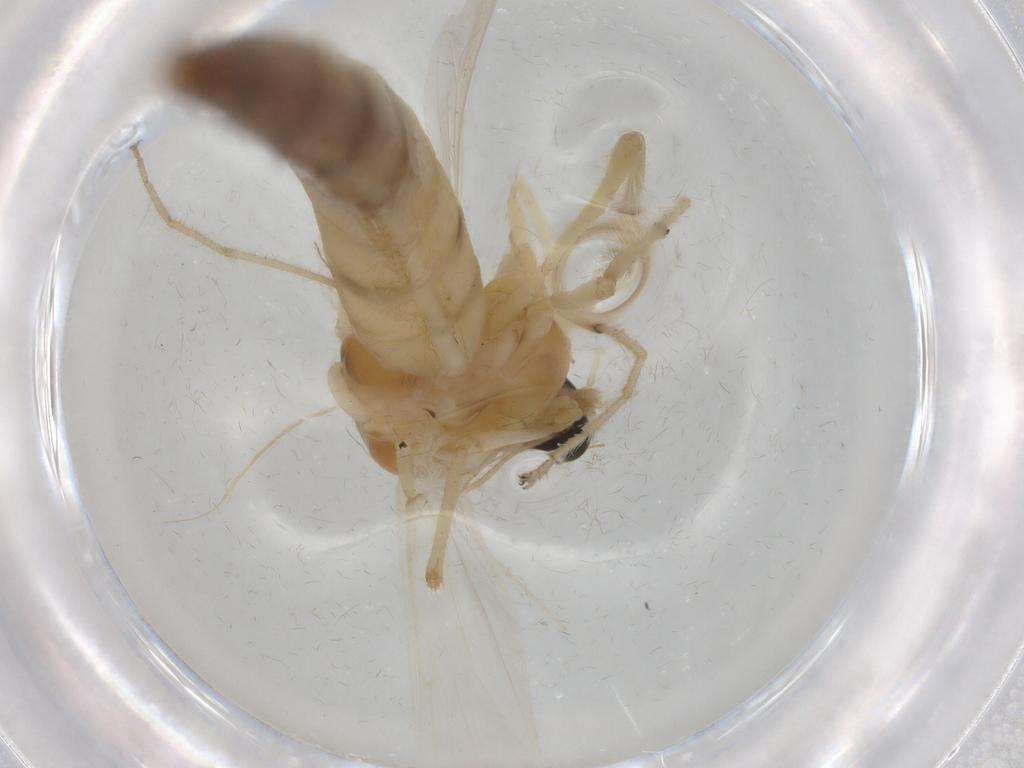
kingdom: Animalia
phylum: Arthropoda
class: Insecta
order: Diptera
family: Chironomidae
